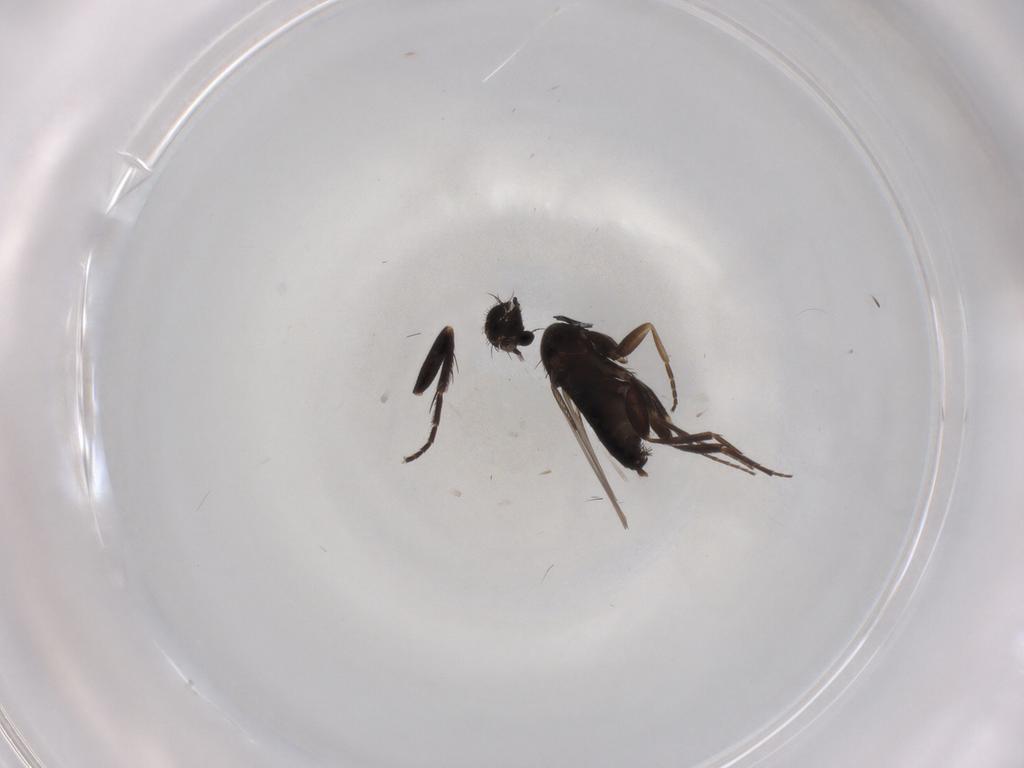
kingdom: Animalia
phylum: Arthropoda
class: Insecta
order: Diptera
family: Phoridae
